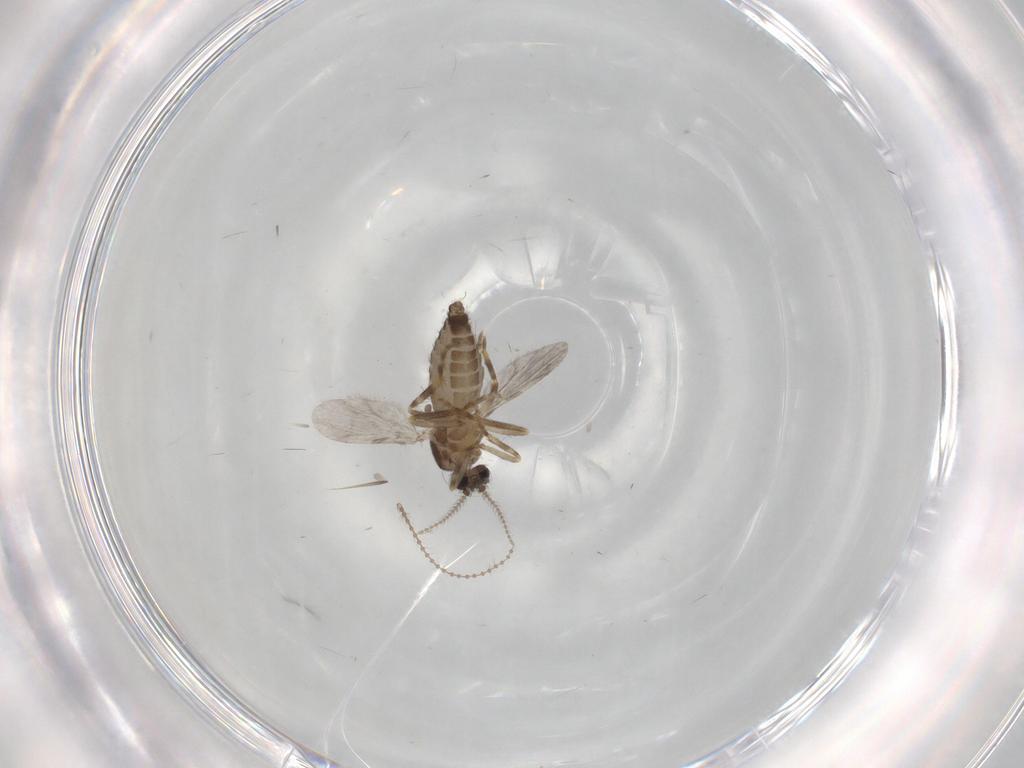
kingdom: Animalia
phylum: Arthropoda
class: Insecta
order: Diptera
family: Ceratopogonidae
